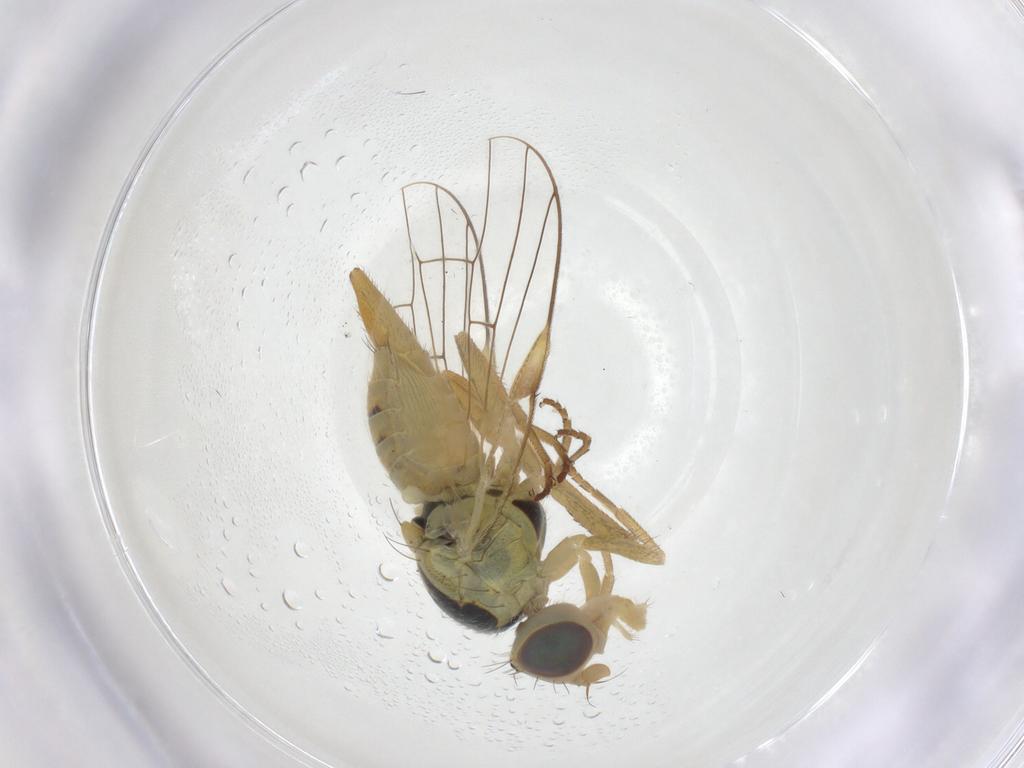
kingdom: Animalia
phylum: Arthropoda
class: Insecta
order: Diptera
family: Tephritidae
